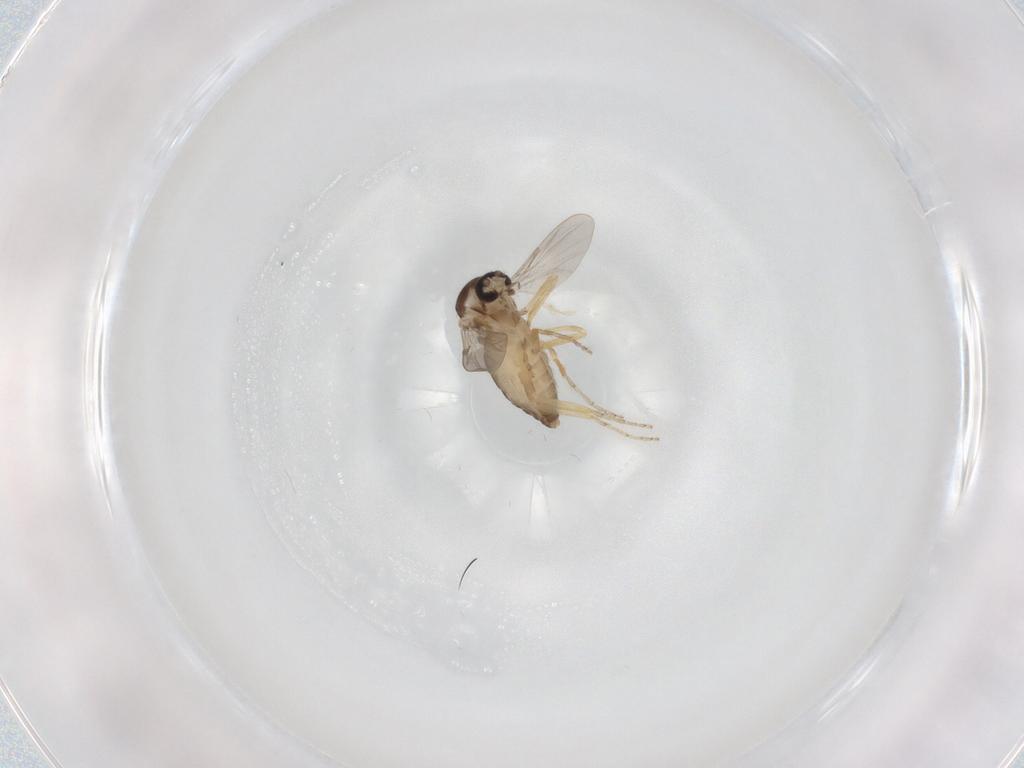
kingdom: Animalia
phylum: Arthropoda
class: Insecta
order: Diptera
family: Ceratopogonidae
